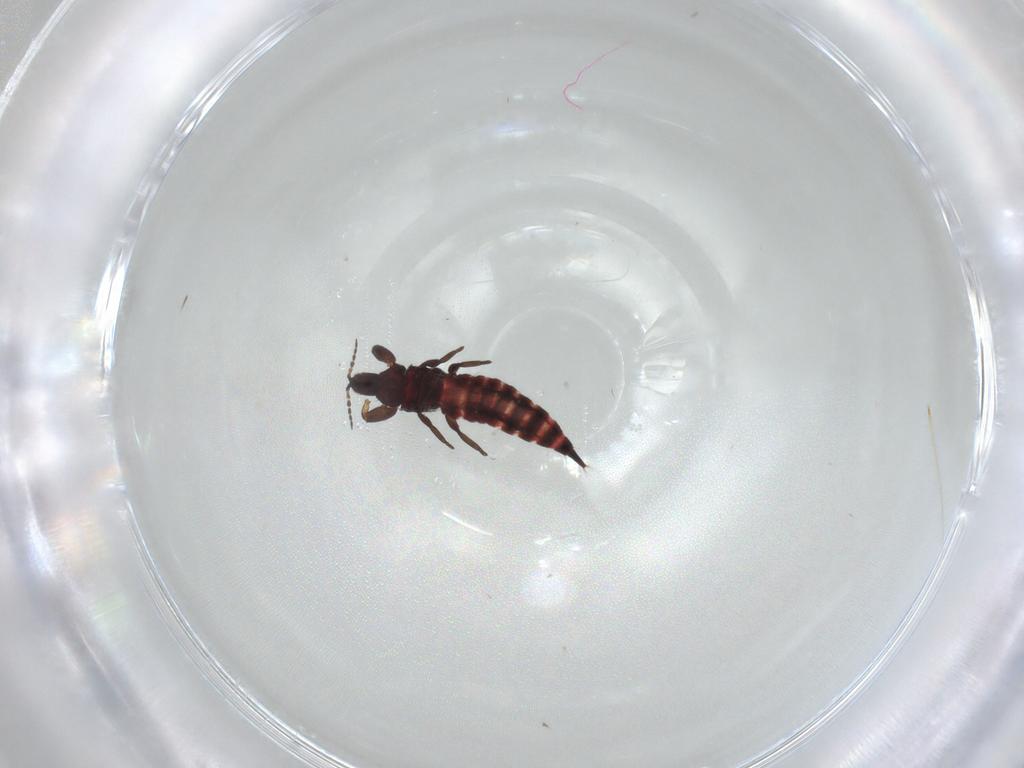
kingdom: Animalia
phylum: Arthropoda
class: Insecta
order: Thysanoptera
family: Phlaeothripidae
